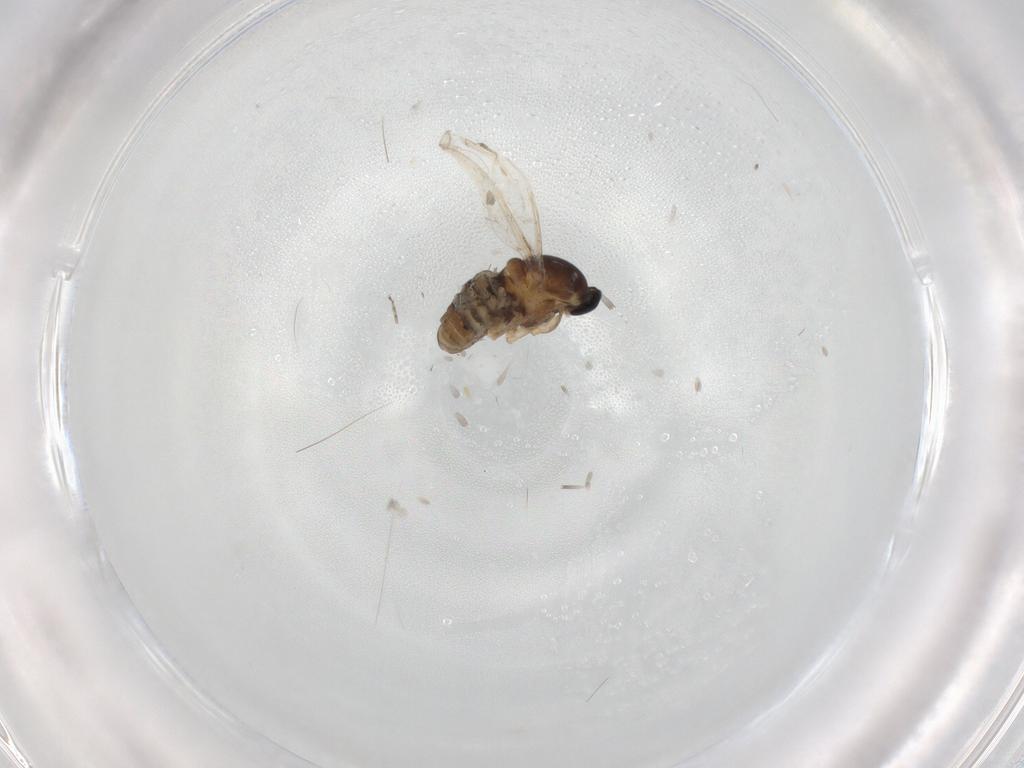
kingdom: Animalia
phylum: Arthropoda
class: Insecta
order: Diptera
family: Cecidomyiidae
